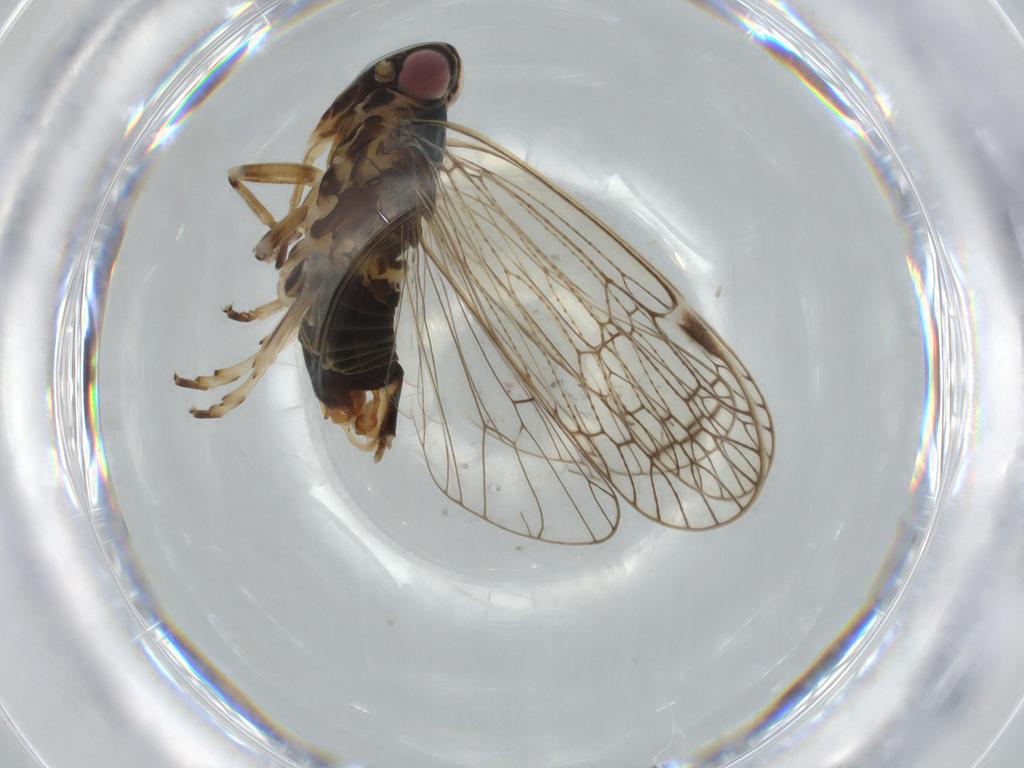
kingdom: Animalia
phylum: Arthropoda
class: Insecta
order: Hemiptera
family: Cixiidae
